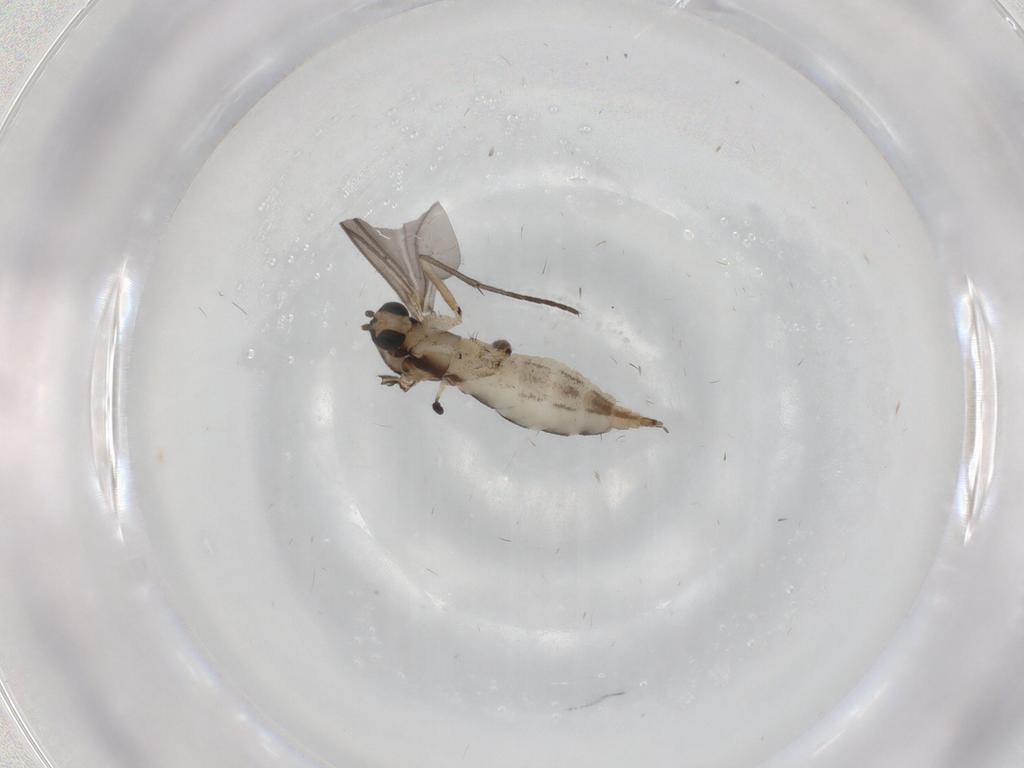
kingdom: Animalia
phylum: Arthropoda
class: Insecta
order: Diptera
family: Sciaridae
